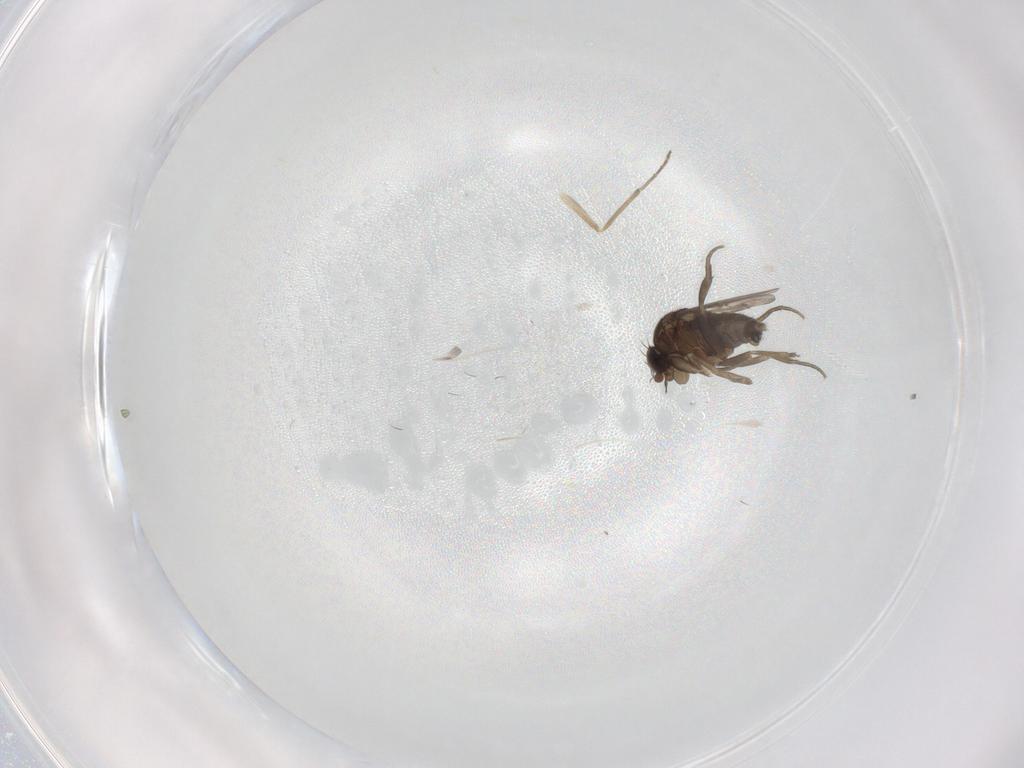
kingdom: Animalia
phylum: Arthropoda
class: Insecta
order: Diptera
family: Phoridae
